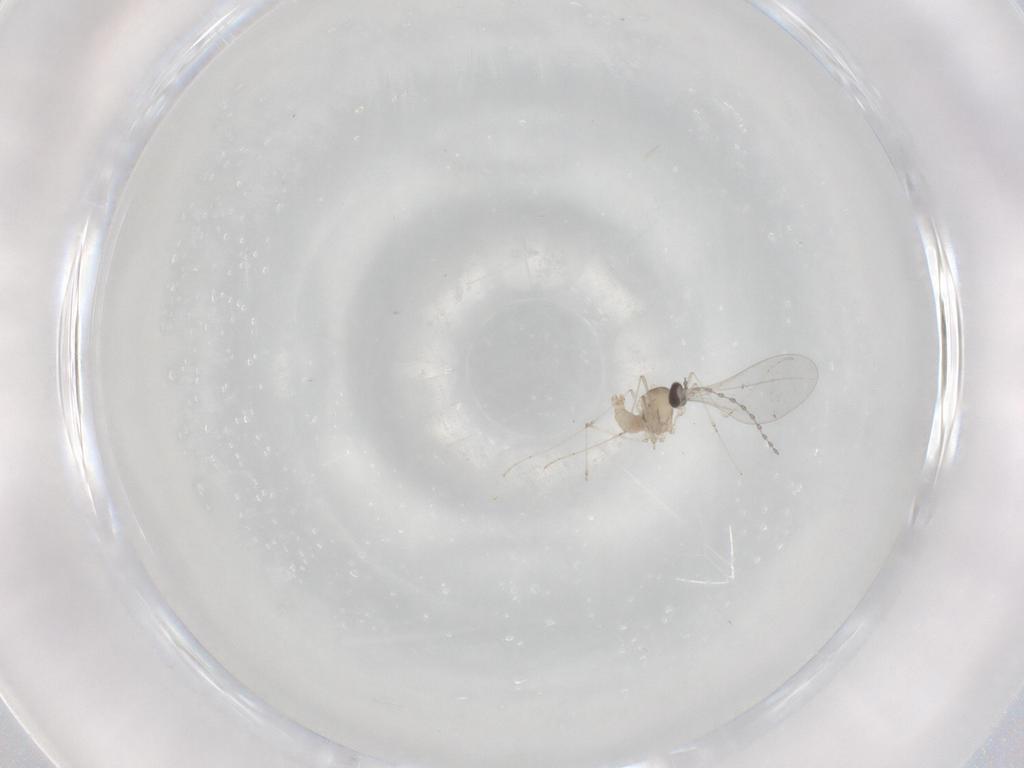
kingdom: Animalia
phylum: Arthropoda
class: Insecta
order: Diptera
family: Cecidomyiidae
